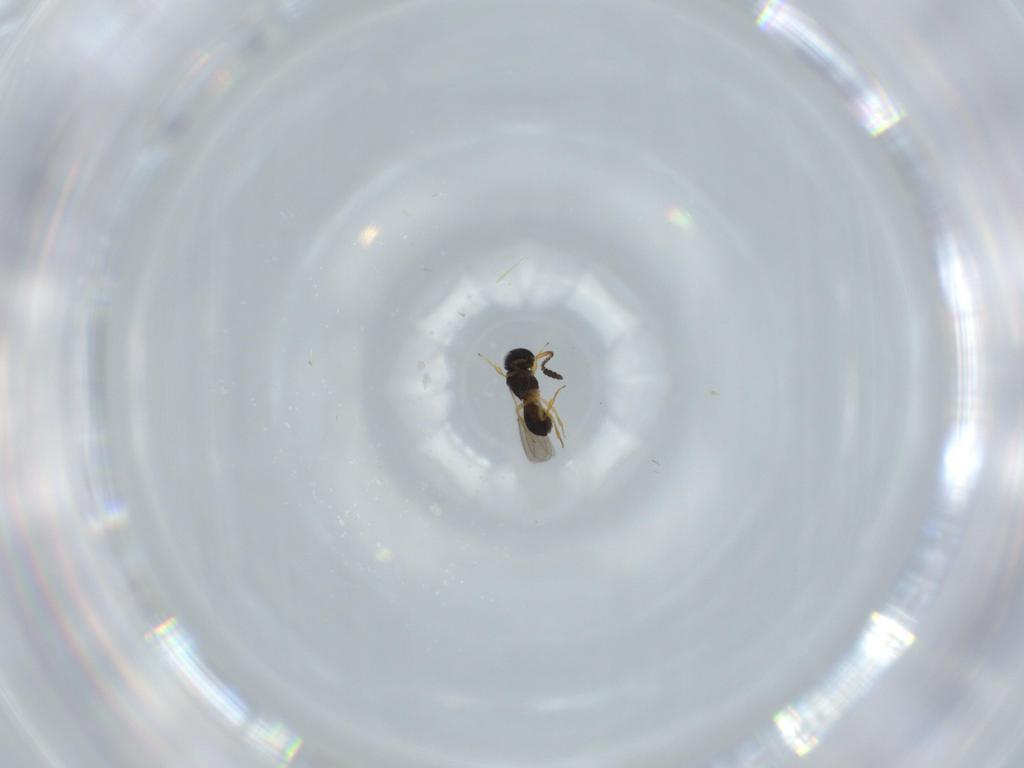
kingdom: Animalia
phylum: Arthropoda
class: Insecta
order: Hymenoptera
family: Scelionidae
